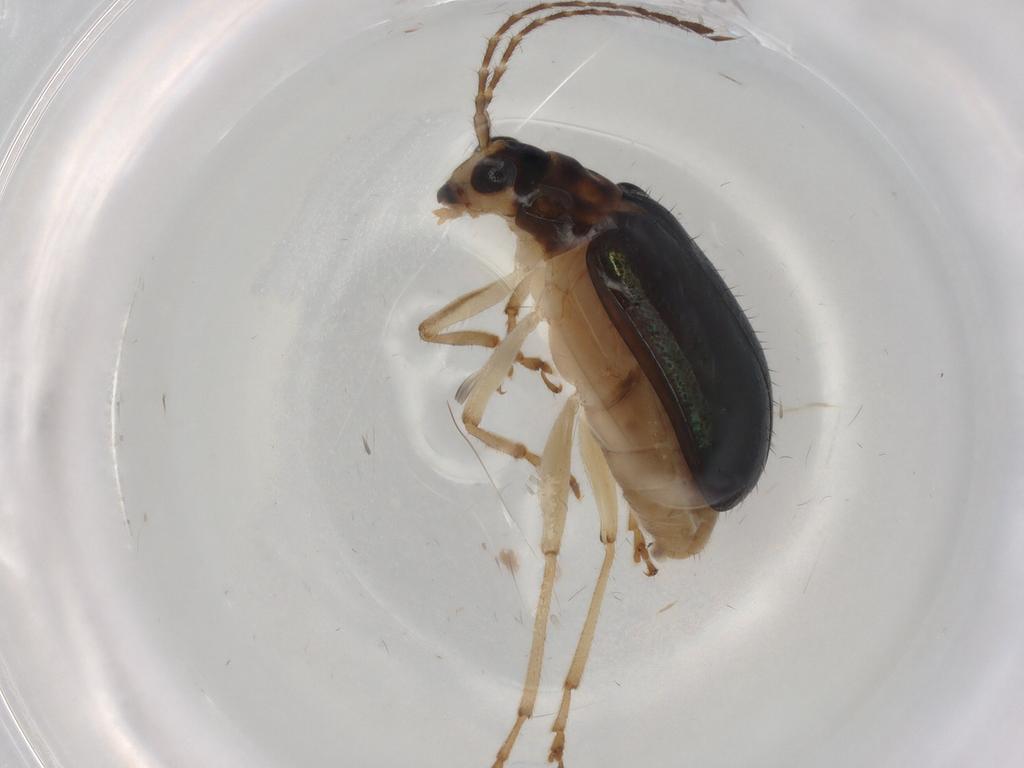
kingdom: Animalia
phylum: Arthropoda
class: Insecta
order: Coleoptera
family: Chrysomelidae
